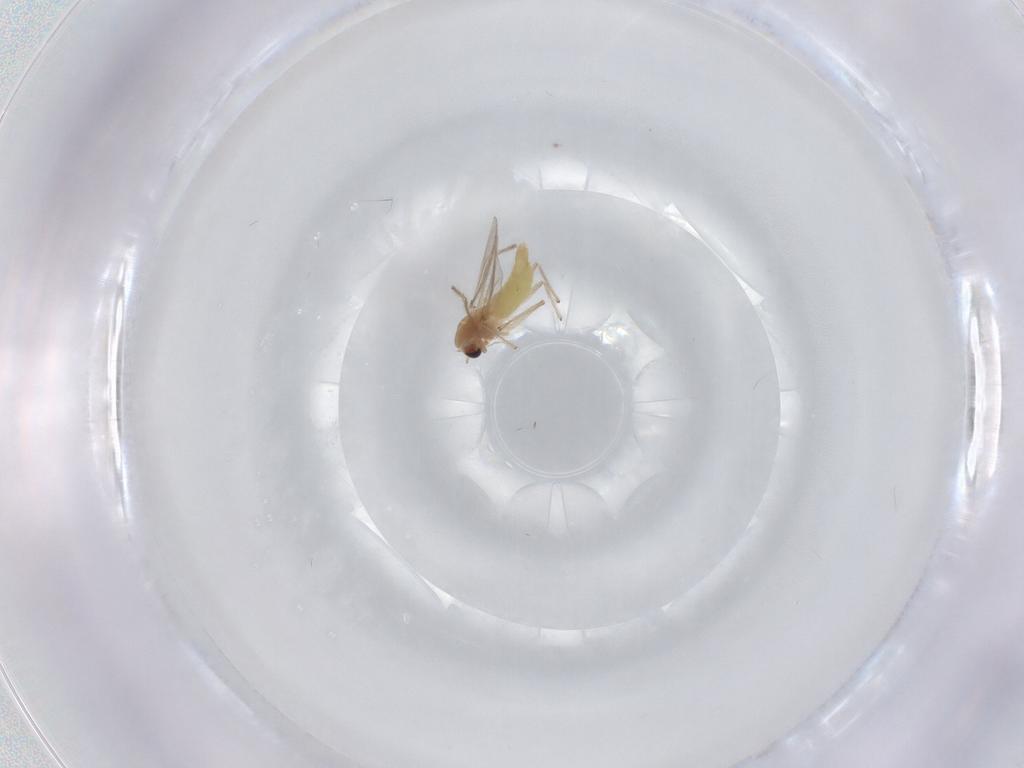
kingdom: Animalia
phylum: Arthropoda
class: Insecta
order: Diptera
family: Chironomidae
